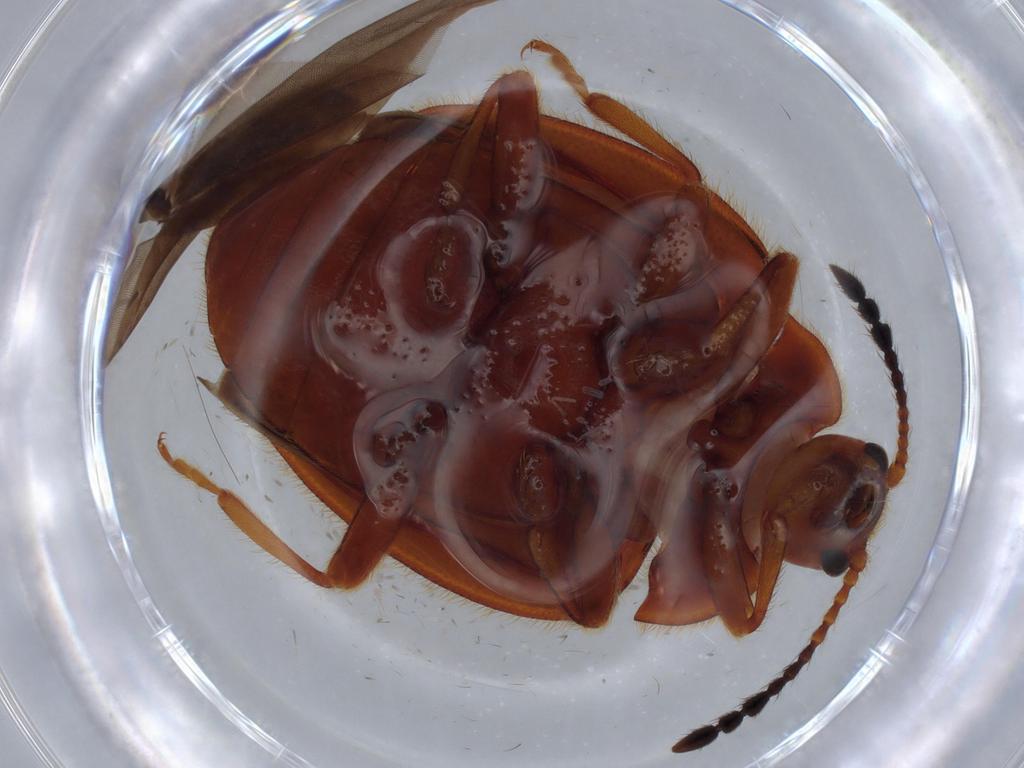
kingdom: Animalia
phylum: Arthropoda
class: Insecta
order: Coleoptera
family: Endomychidae
